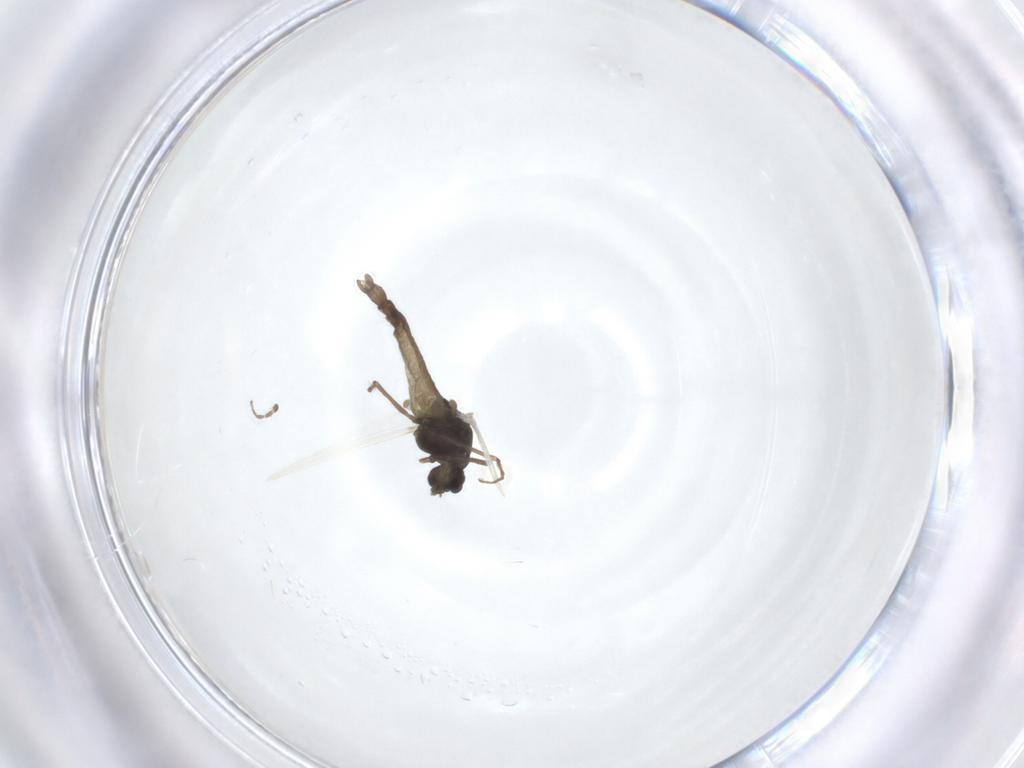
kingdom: Animalia
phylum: Arthropoda
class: Insecta
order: Diptera
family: Chironomidae
